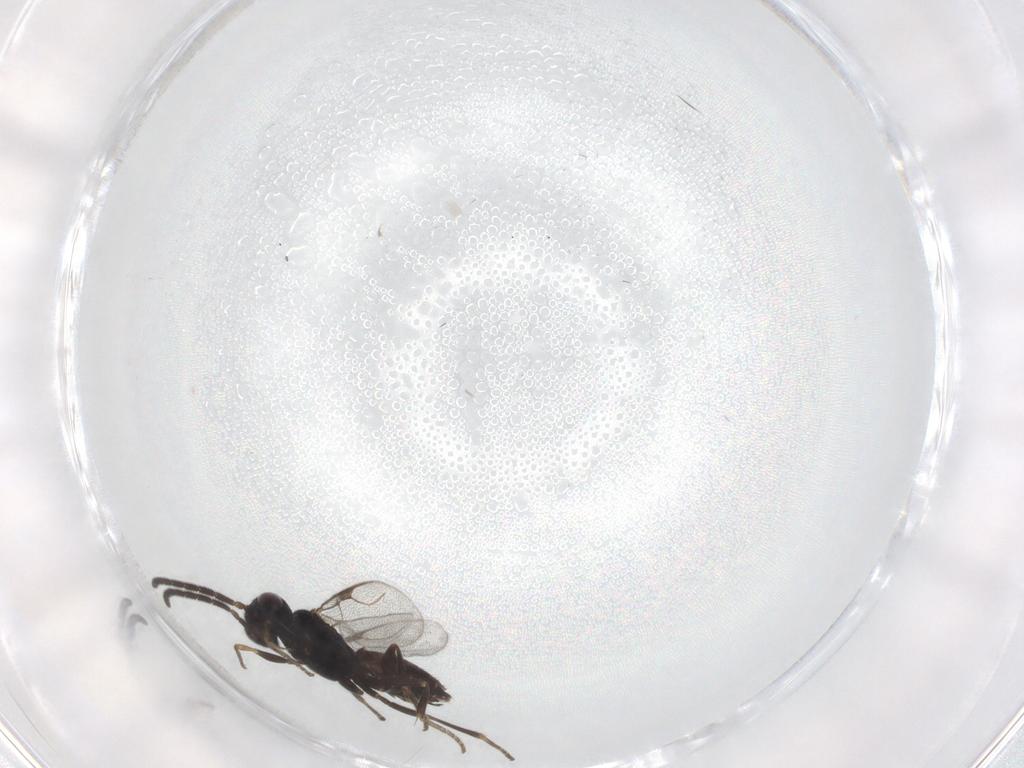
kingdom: Animalia
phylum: Arthropoda
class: Insecta
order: Hymenoptera
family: Dryinidae
